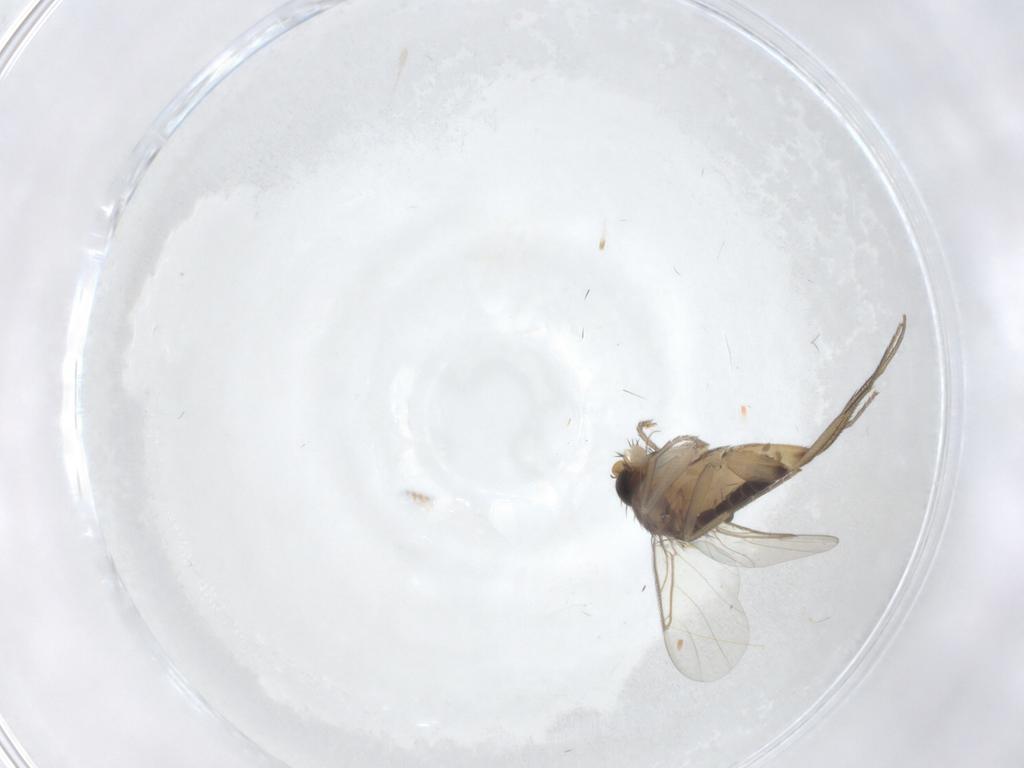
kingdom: Animalia
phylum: Arthropoda
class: Insecta
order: Diptera
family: Phoridae
